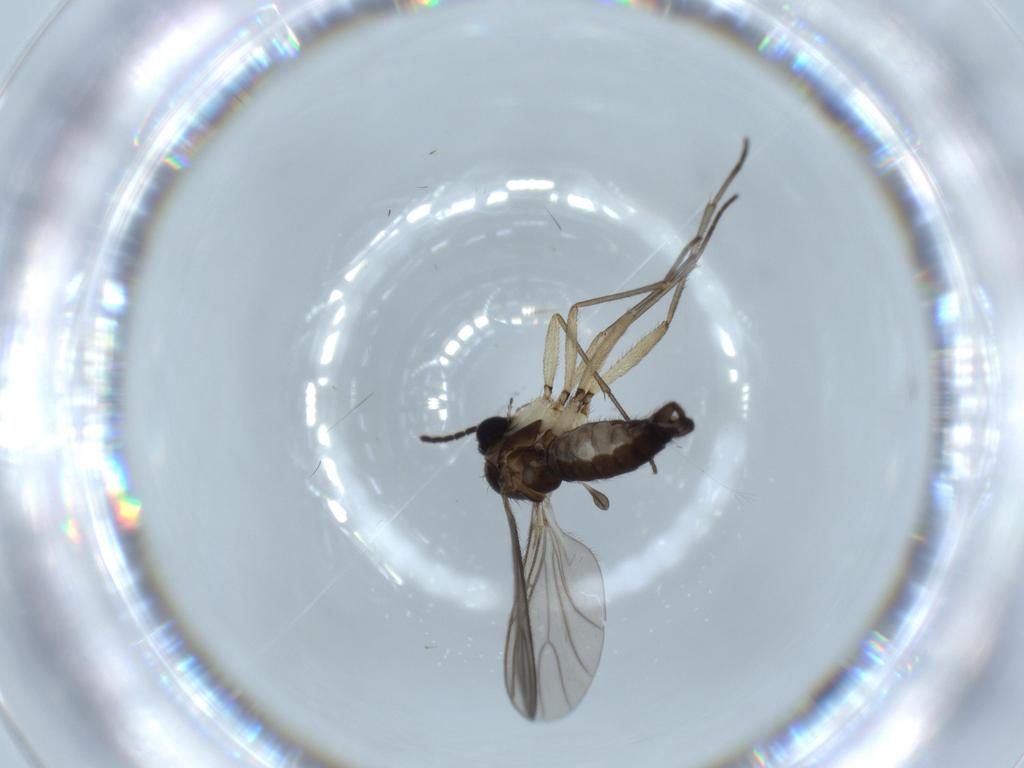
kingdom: Animalia
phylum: Arthropoda
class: Insecta
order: Diptera
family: Sciaridae
